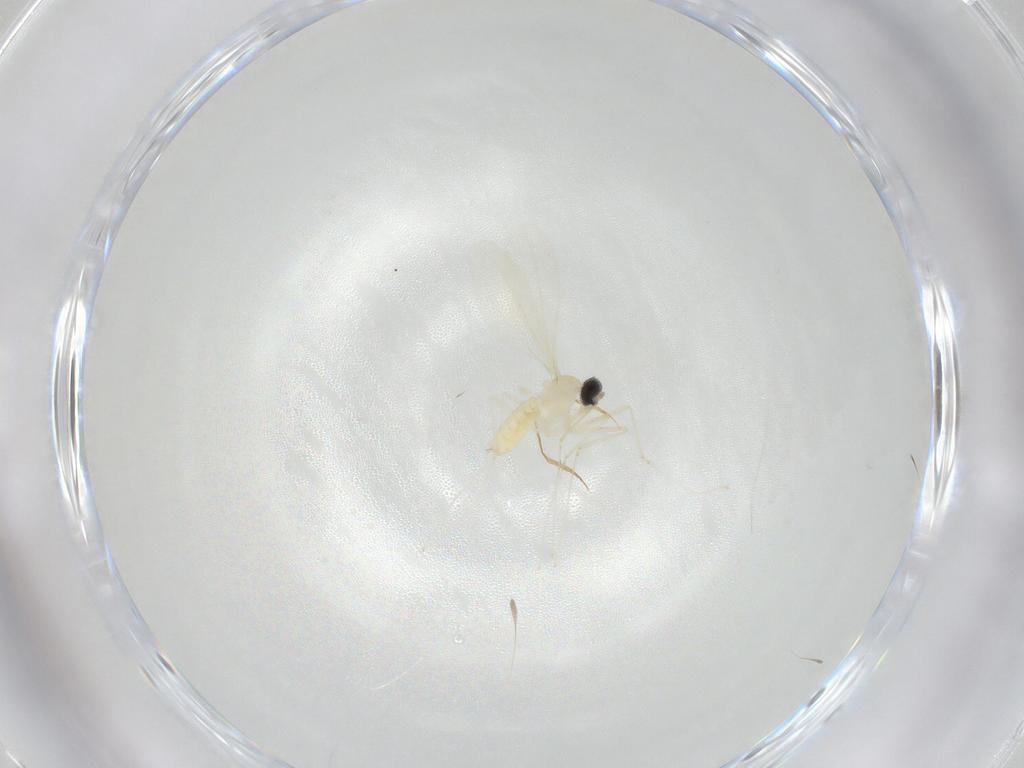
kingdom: Animalia
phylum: Arthropoda
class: Insecta
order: Diptera
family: Cecidomyiidae
